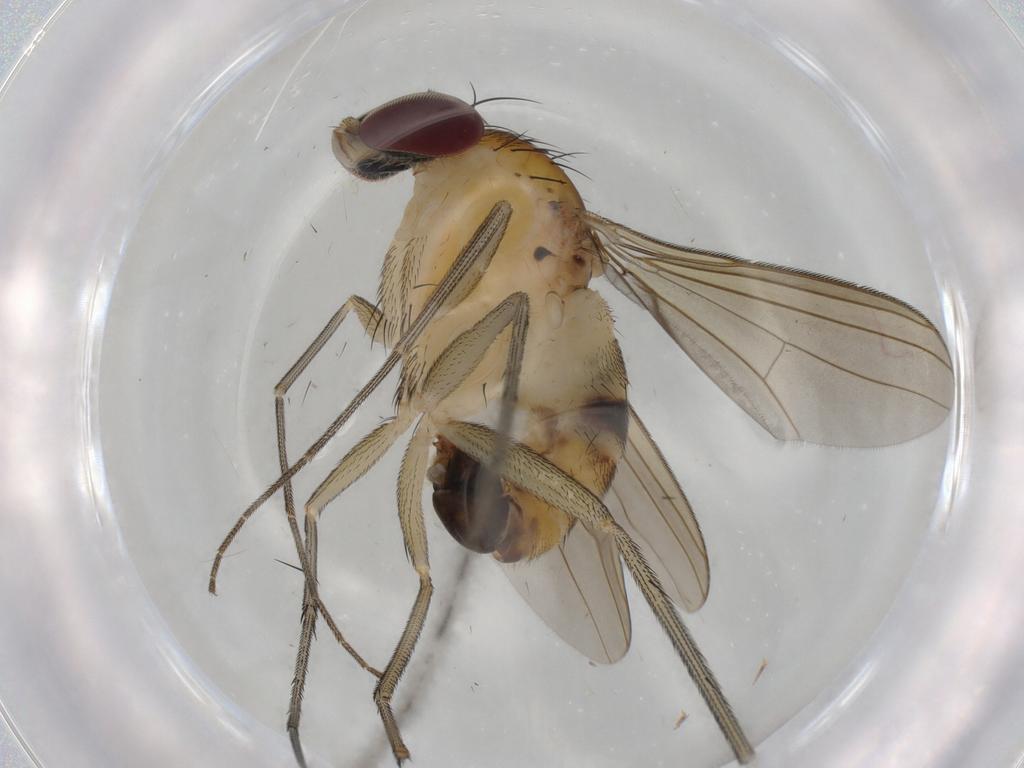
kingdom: Animalia
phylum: Arthropoda
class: Insecta
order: Diptera
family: Dolichopodidae
